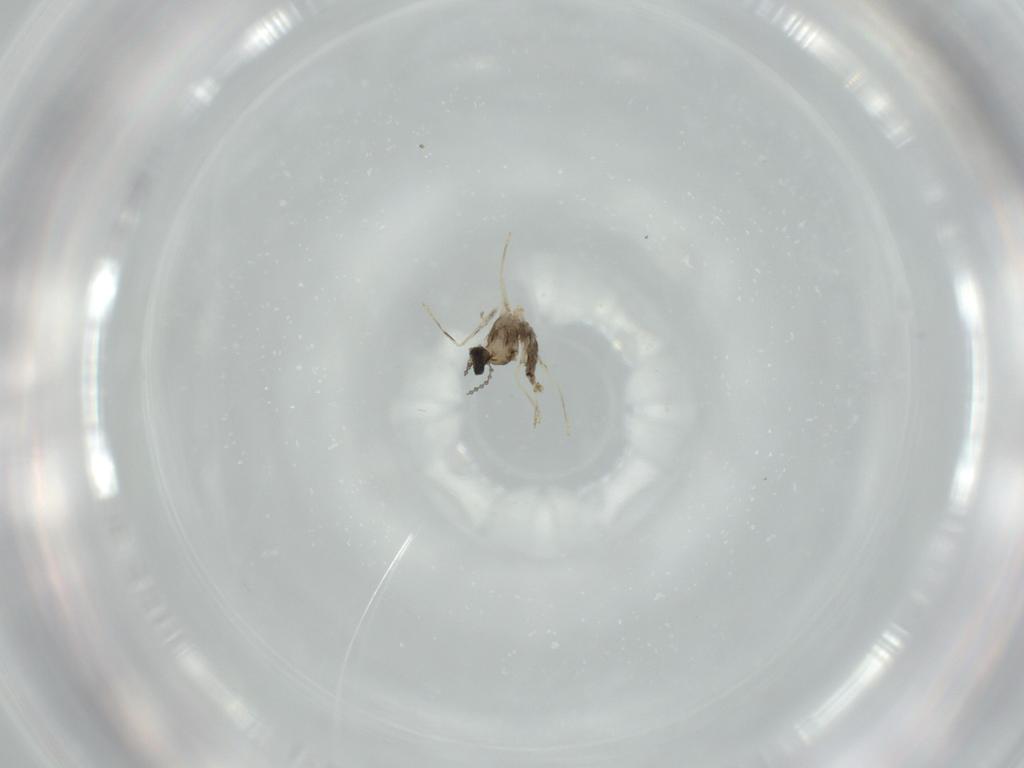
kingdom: Animalia
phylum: Arthropoda
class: Insecta
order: Diptera
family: Cecidomyiidae
